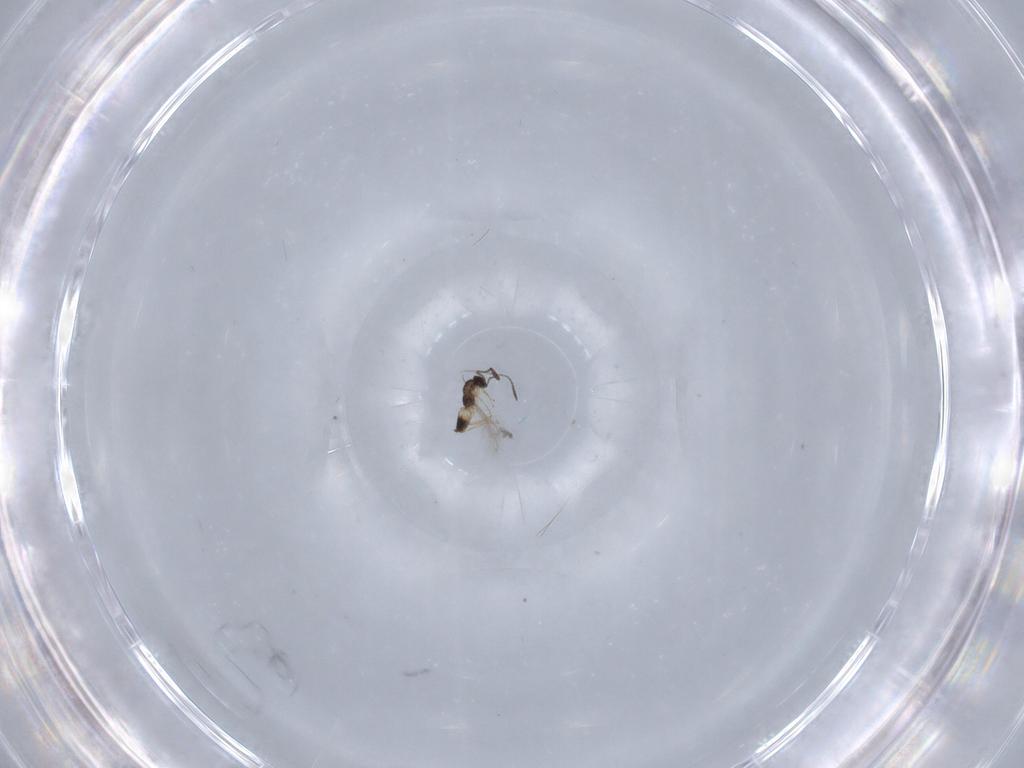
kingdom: Animalia
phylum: Arthropoda
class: Insecta
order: Hymenoptera
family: Mymaridae
